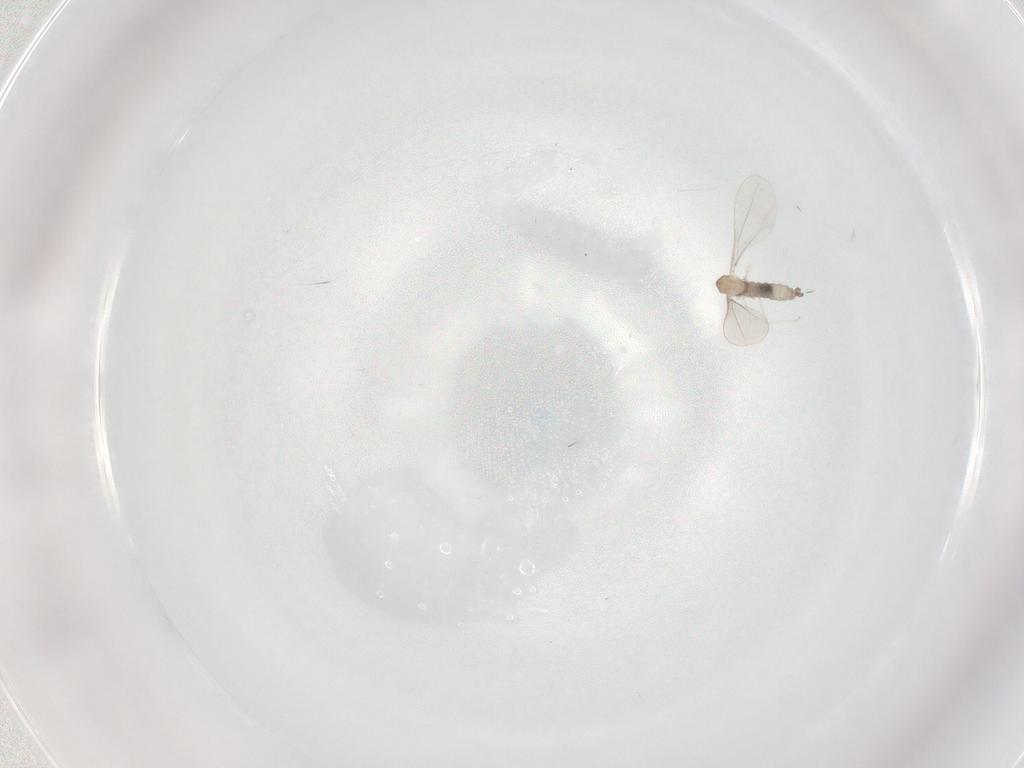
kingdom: Animalia
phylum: Arthropoda
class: Insecta
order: Diptera
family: Cecidomyiidae
